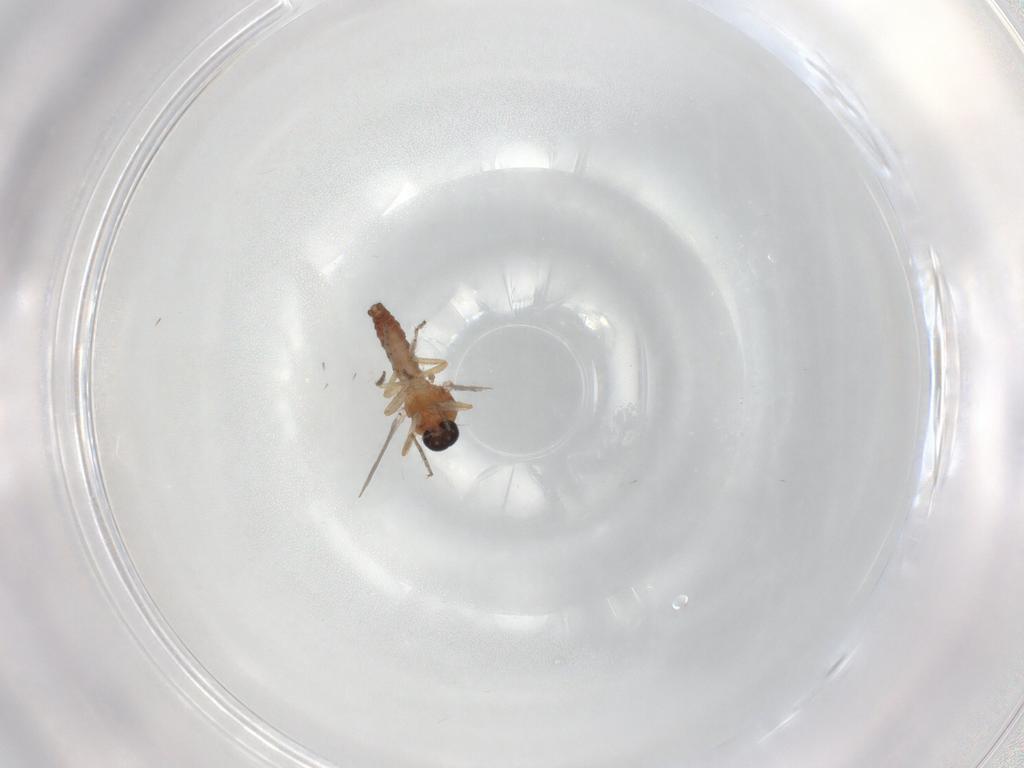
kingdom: Animalia
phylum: Arthropoda
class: Insecta
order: Diptera
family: Ceratopogonidae
